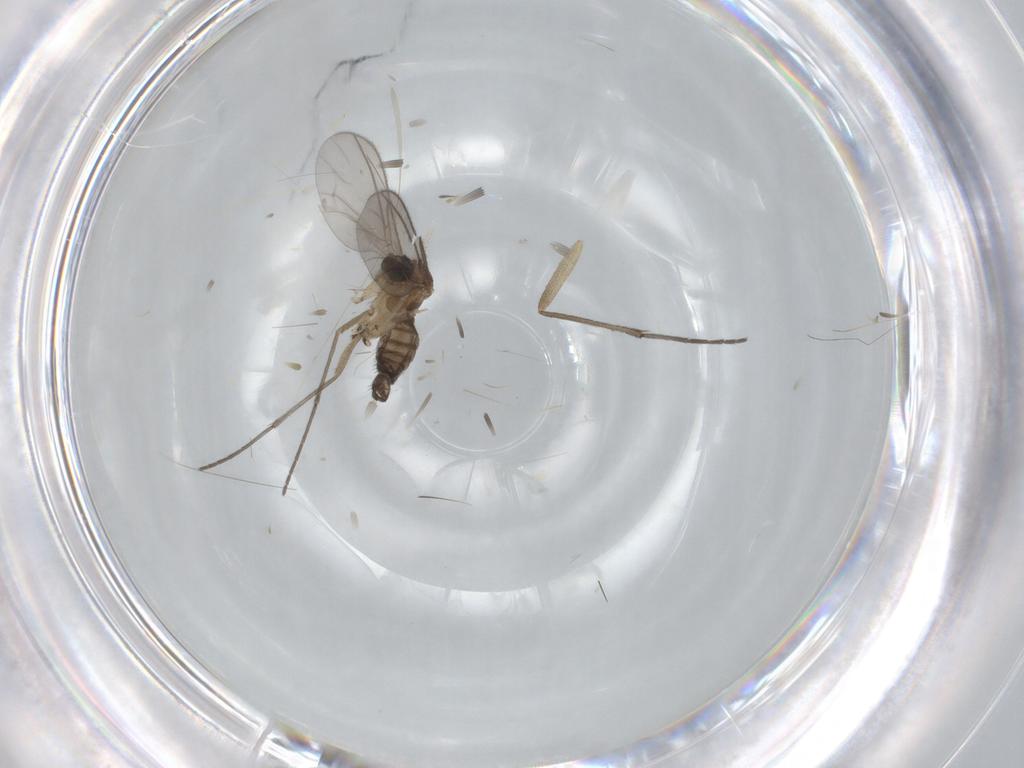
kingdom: Animalia
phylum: Arthropoda
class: Insecta
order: Diptera
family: Sciaridae
